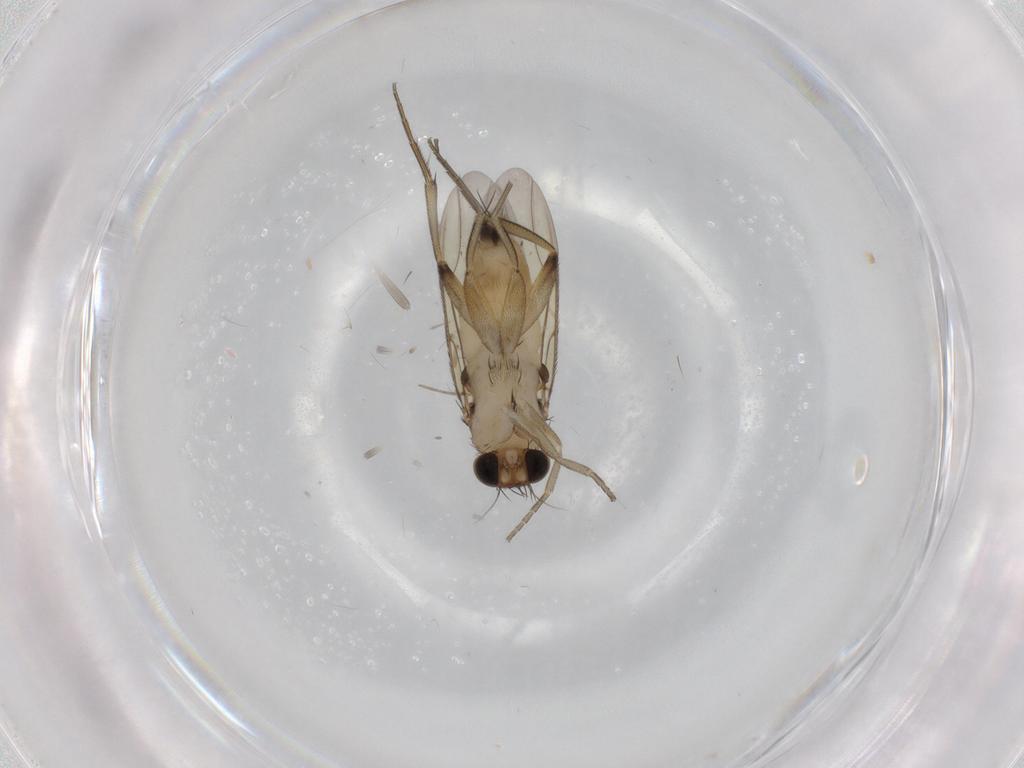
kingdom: Animalia
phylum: Arthropoda
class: Insecta
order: Diptera
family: Phoridae
